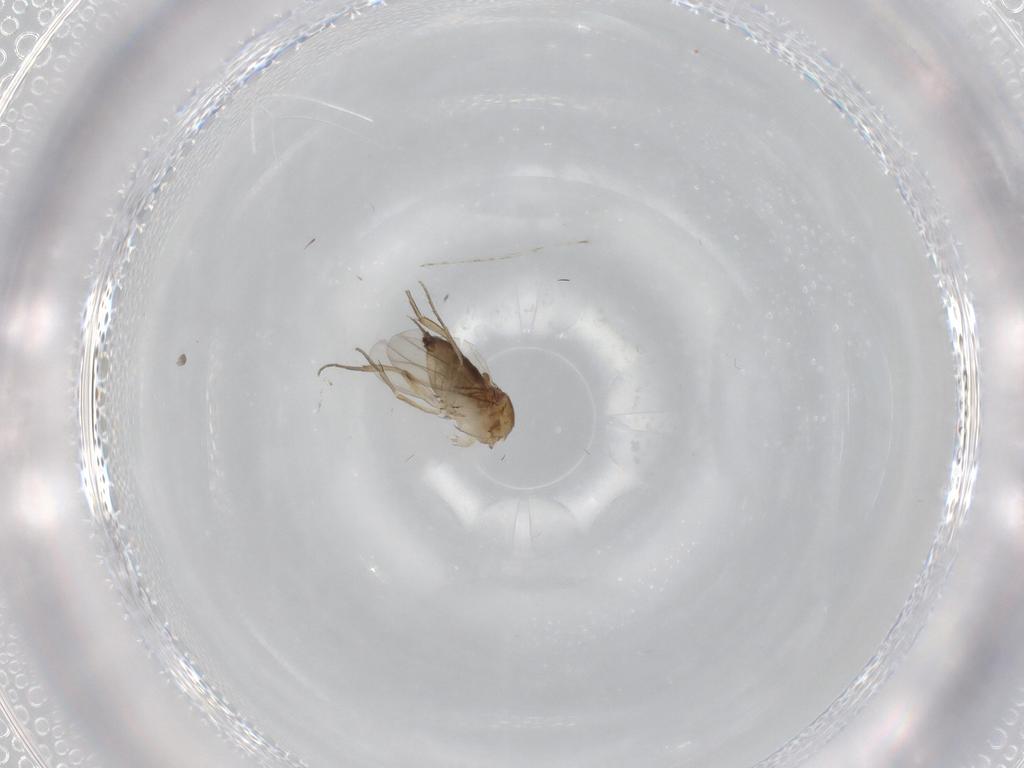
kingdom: Animalia
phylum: Arthropoda
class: Insecta
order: Diptera
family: Phoridae
